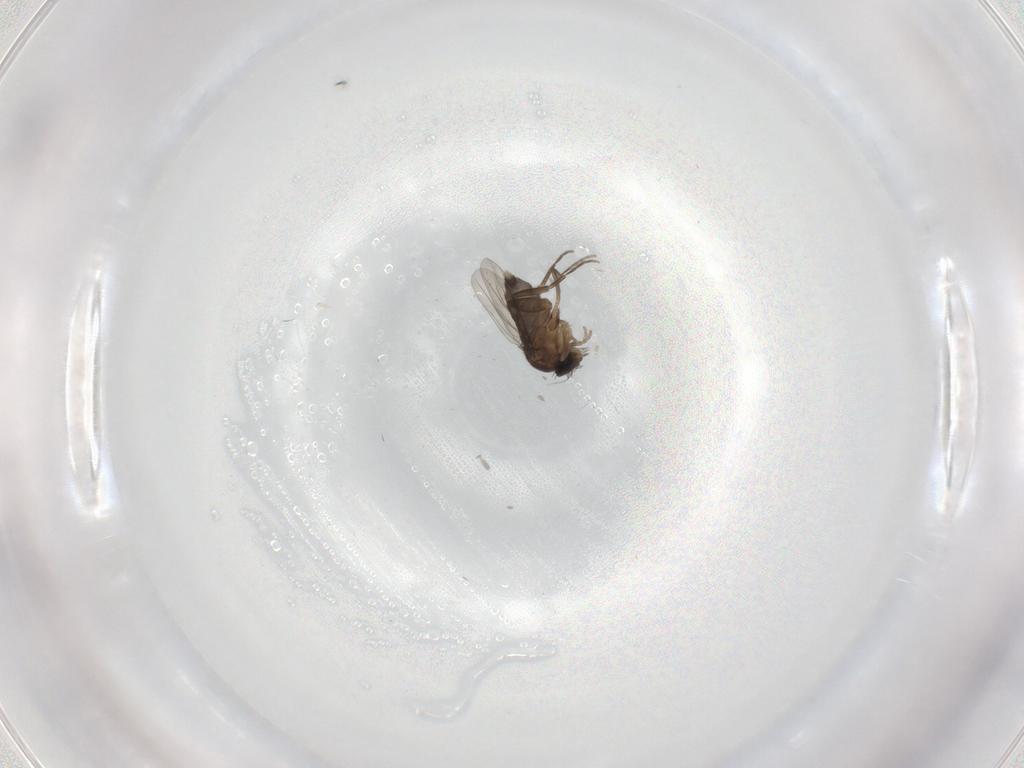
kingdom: Animalia
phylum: Arthropoda
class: Insecta
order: Diptera
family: Phoridae
